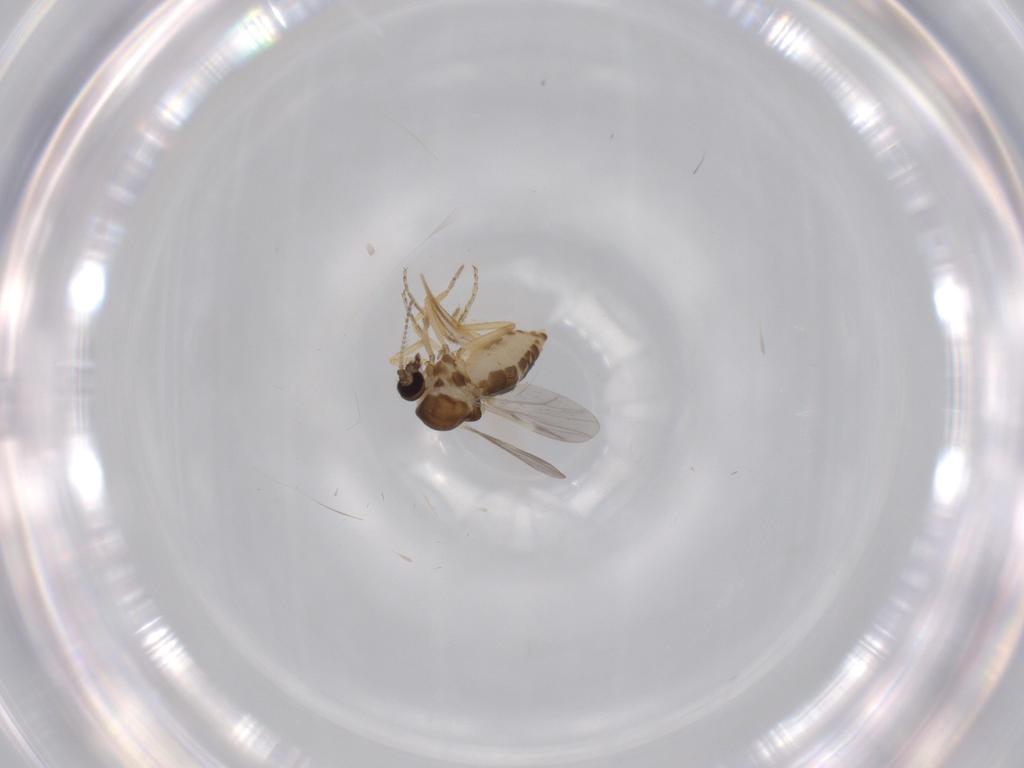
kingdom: Animalia
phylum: Arthropoda
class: Insecta
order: Diptera
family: Ceratopogonidae
